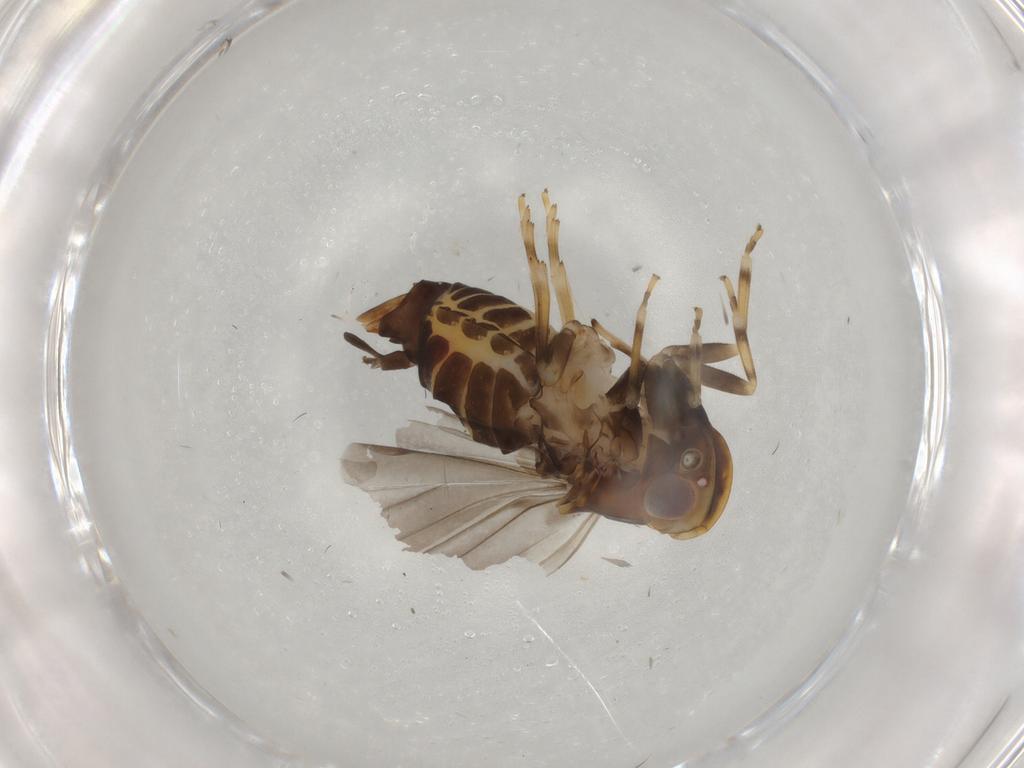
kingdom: Animalia
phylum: Arthropoda
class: Insecta
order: Hemiptera
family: Cixiidae
